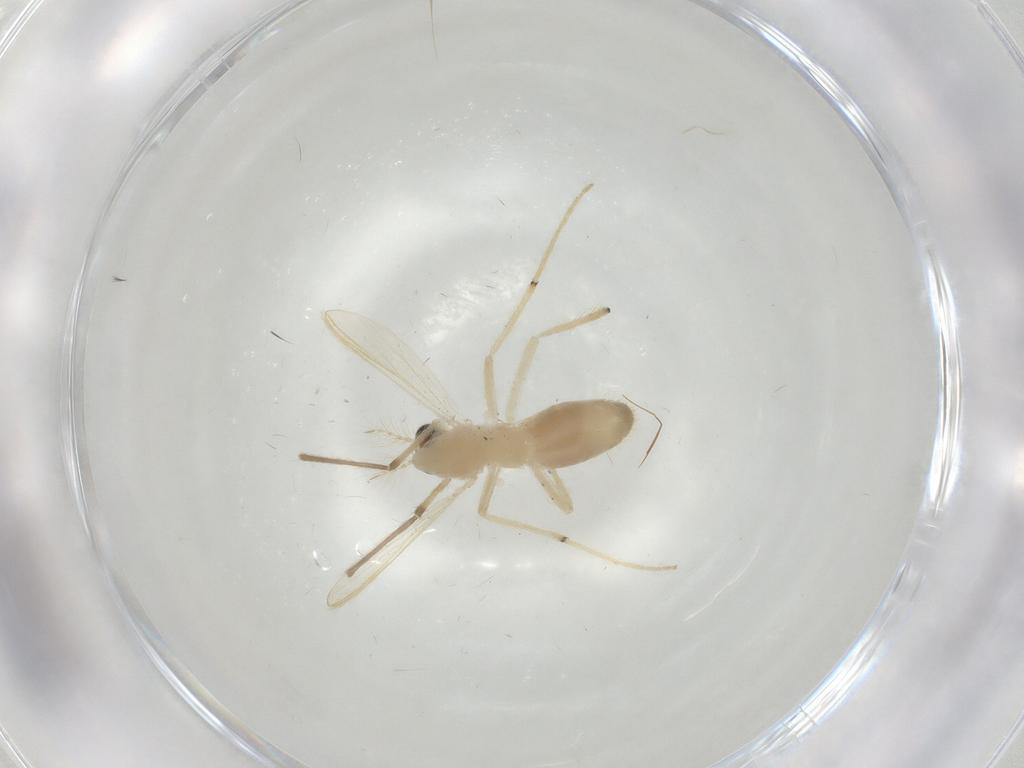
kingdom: Animalia
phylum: Arthropoda
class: Insecta
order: Diptera
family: Chironomidae
